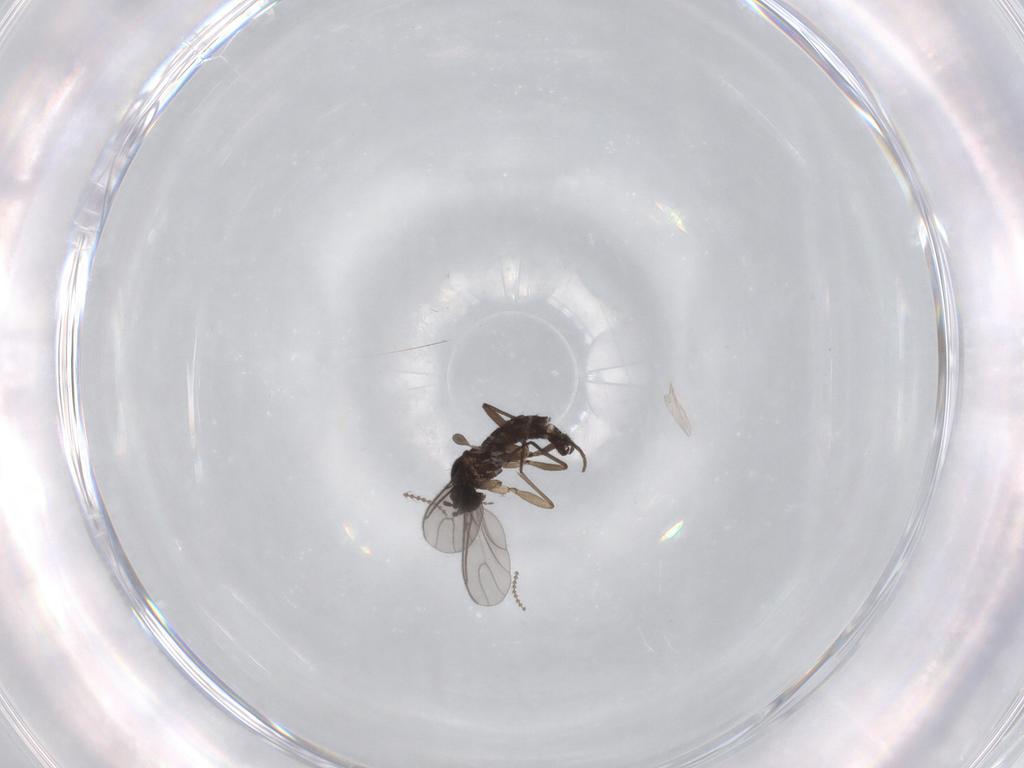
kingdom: Animalia
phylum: Arthropoda
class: Insecta
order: Diptera
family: Sciaridae
